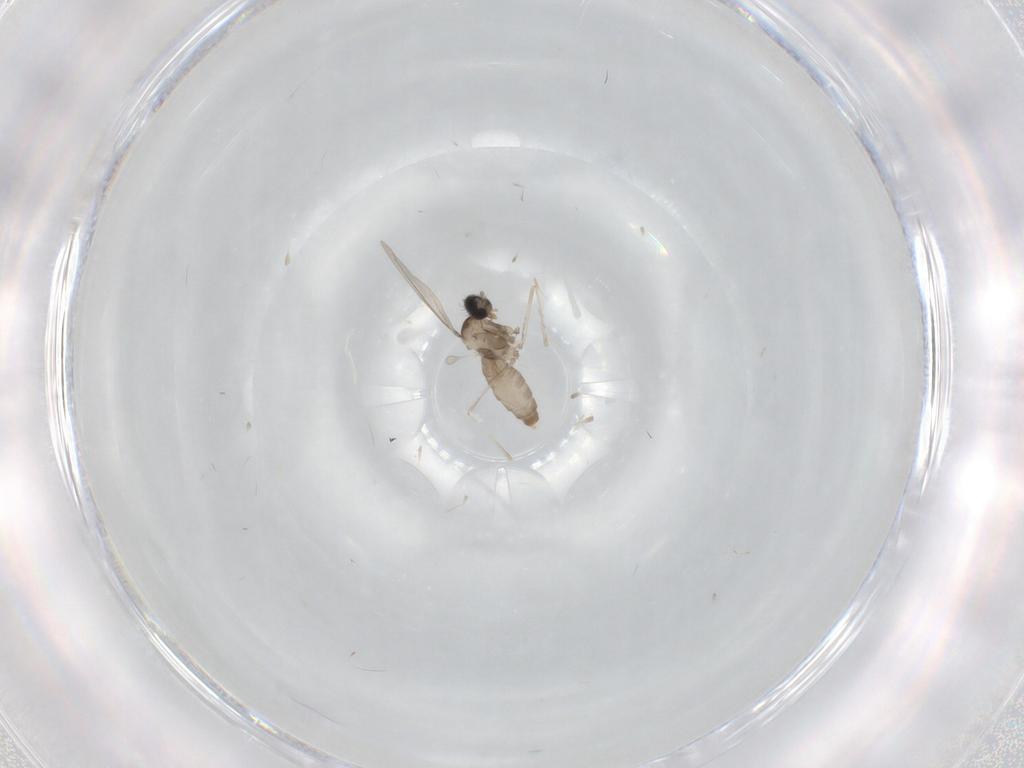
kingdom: Animalia
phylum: Arthropoda
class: Insecta
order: Diptera
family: Chironomidae
